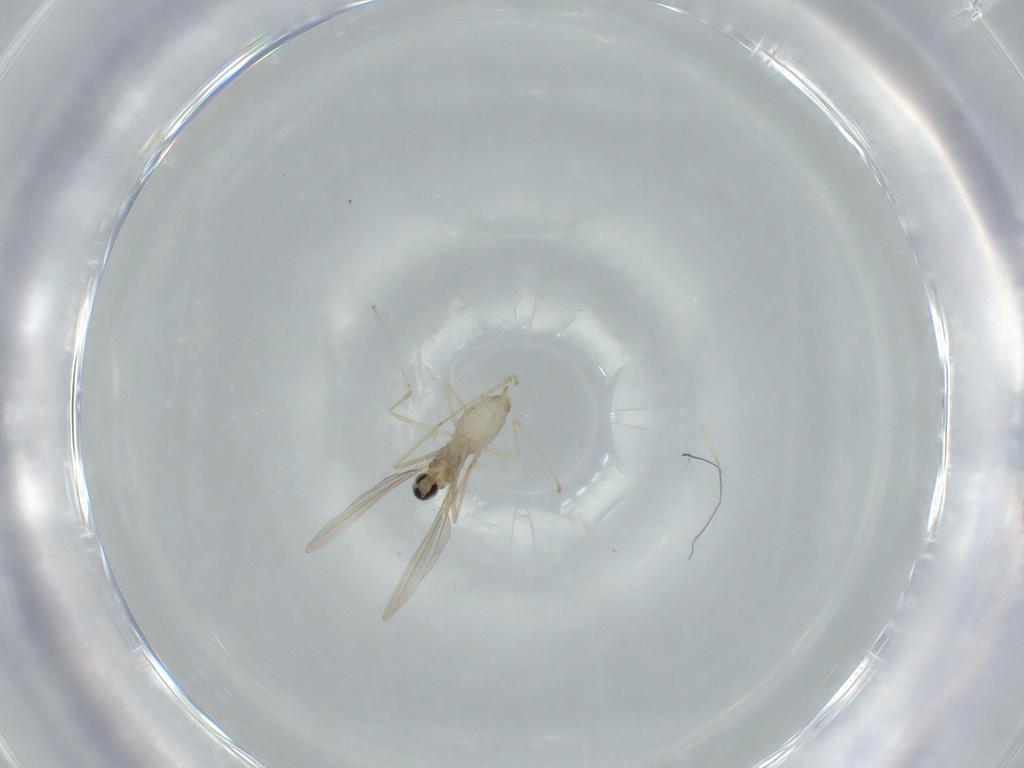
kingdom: Animalia
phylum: Arthropoda
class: Insecta
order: Diptera
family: Cecidomyiidae
